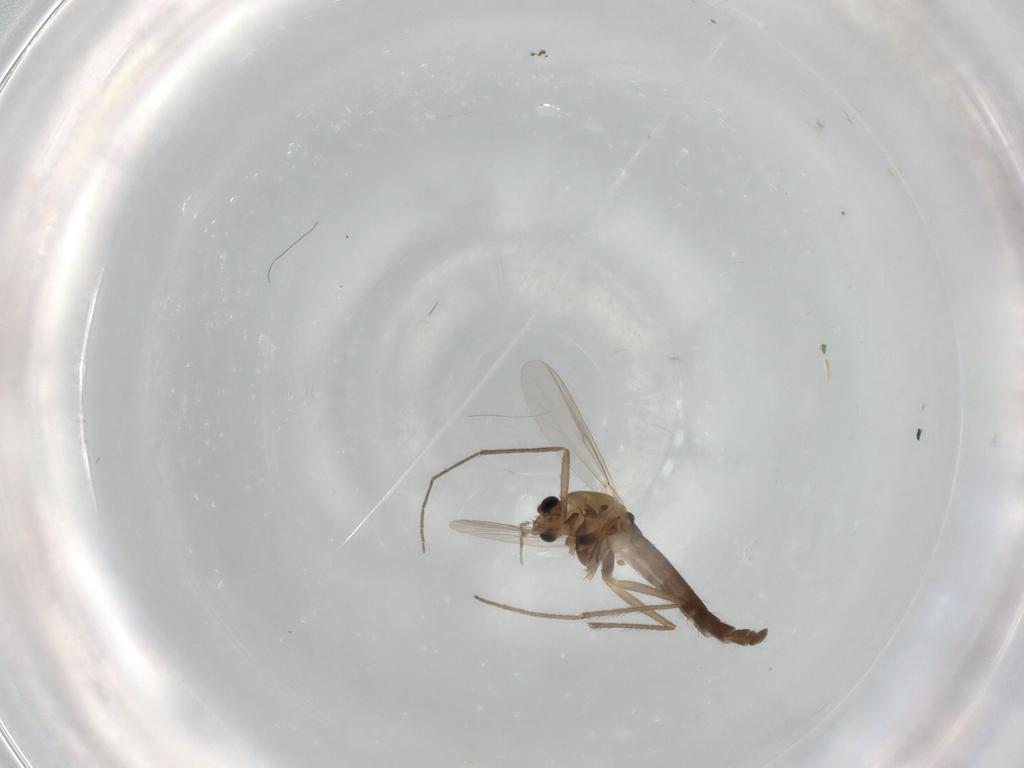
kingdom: Animalia
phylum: Arthropoda
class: Insecta
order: Diptera
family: Chironomidae
